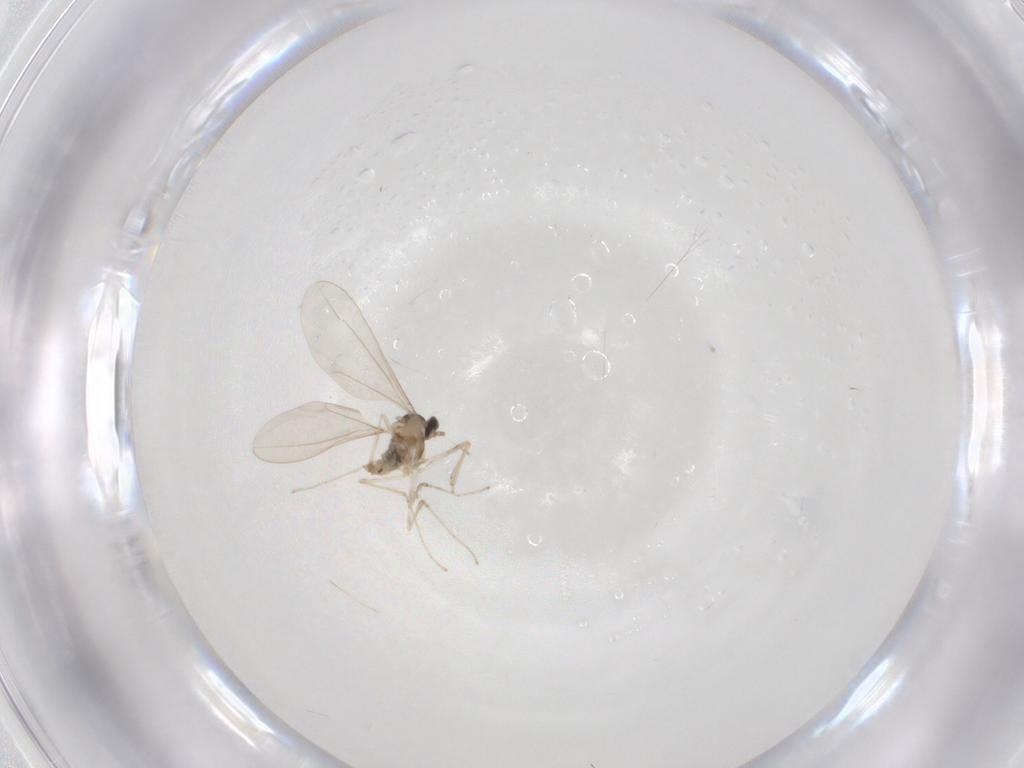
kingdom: Animalia
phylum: Arthropoda
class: Insecta
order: Diptera
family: Cecidomyiidae
